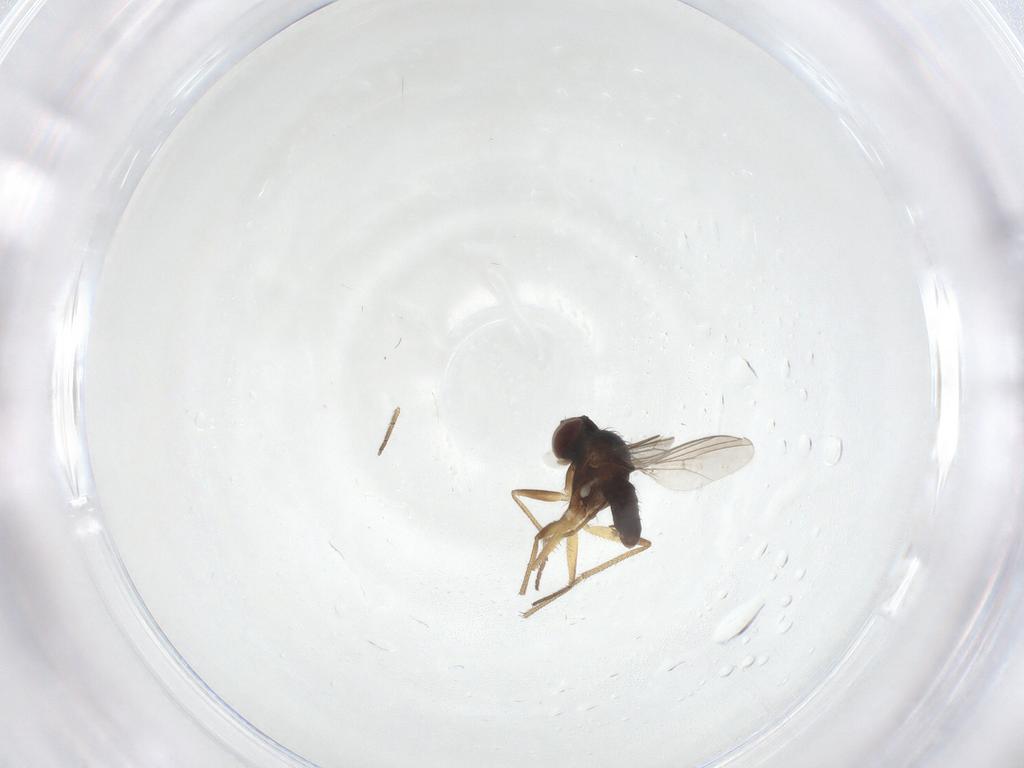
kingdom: Animalia
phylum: Arthropoda
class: Insecta
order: Diptera
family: Dolichopodidae
